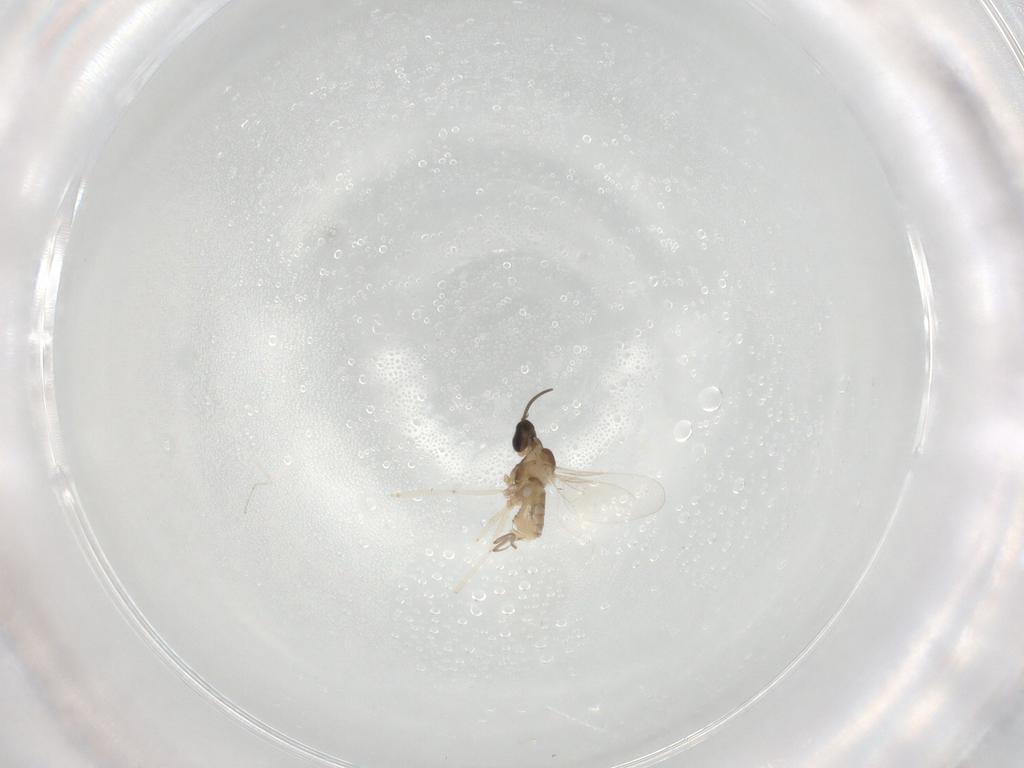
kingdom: Animalia
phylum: Arthropoda
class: Insecta
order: Diptera
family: Cecidomyiidae
